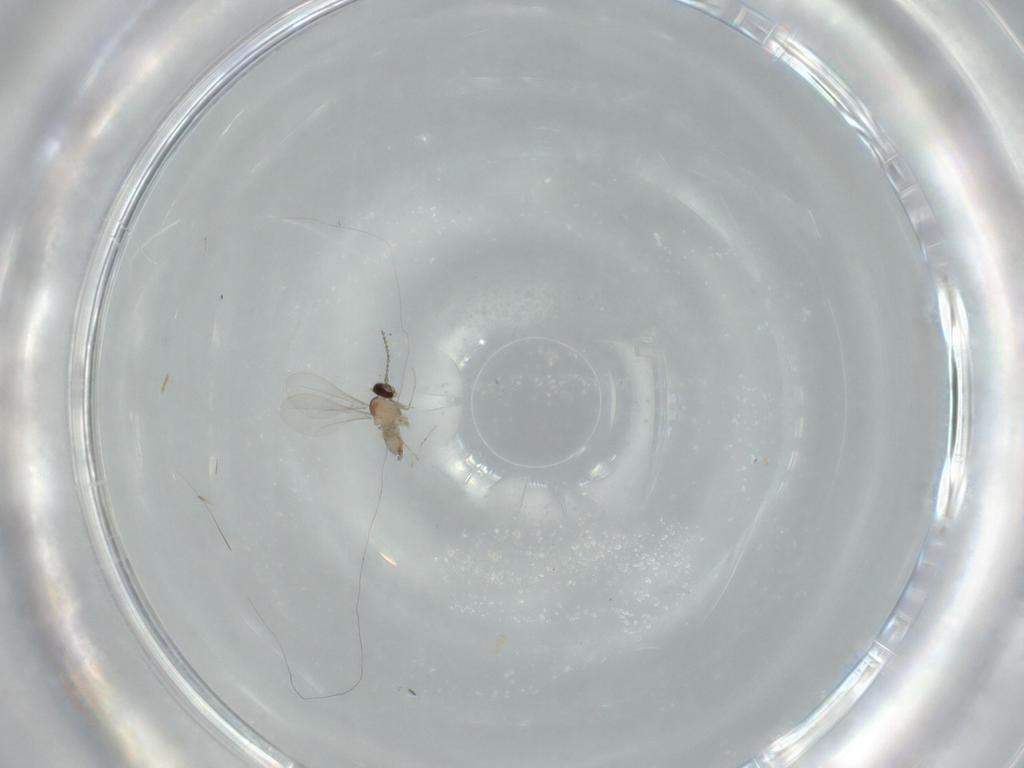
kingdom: Animalia
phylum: Arthropoda
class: Insecta
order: Diptera
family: Cecidomyiidae
